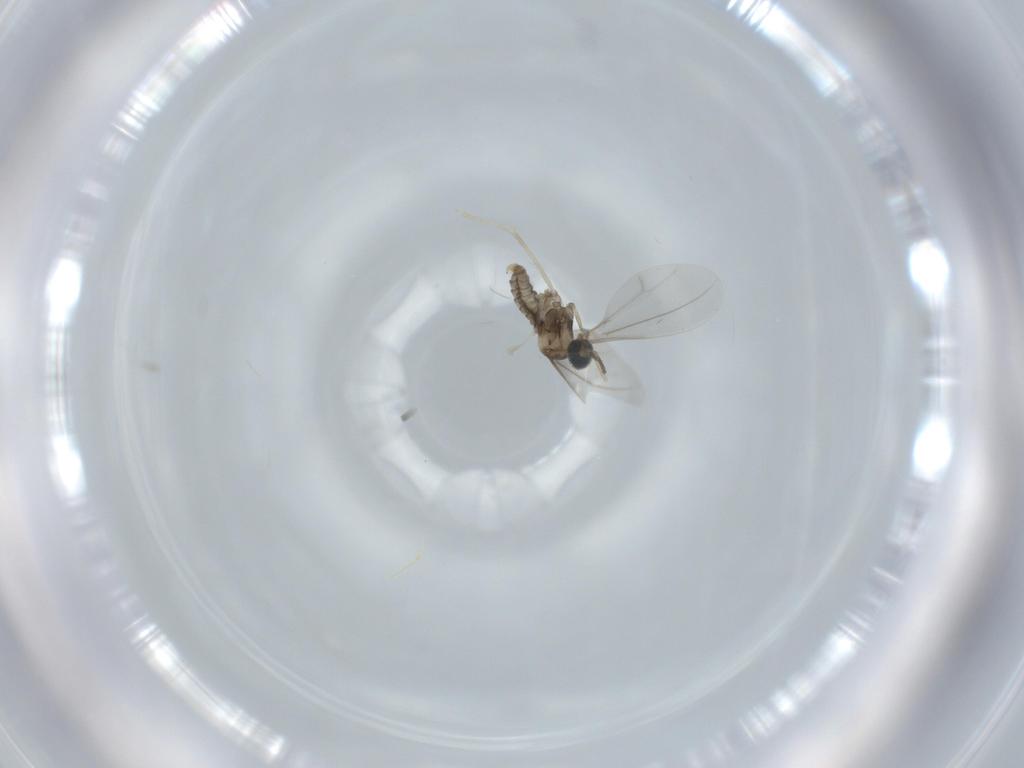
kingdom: Animalia
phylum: Arthropoda
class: Insecta
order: Diptera
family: Cecidomyiidae
